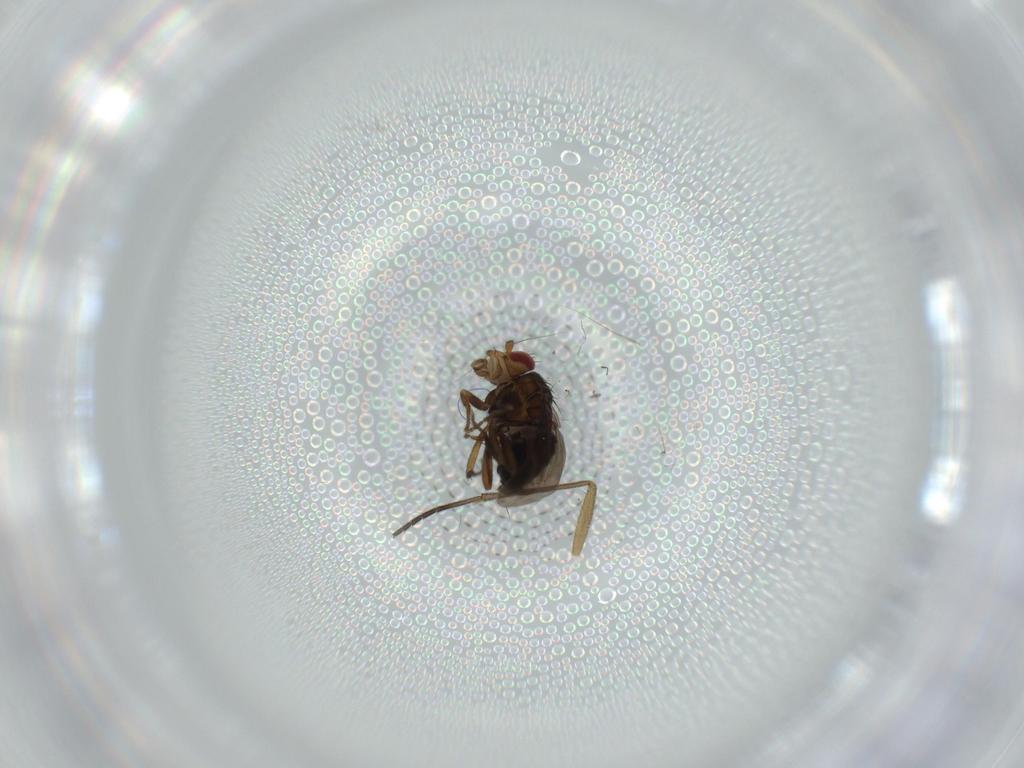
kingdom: Animalia
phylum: Arthropoda
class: Insecta
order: Diptera
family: Sciaridae
